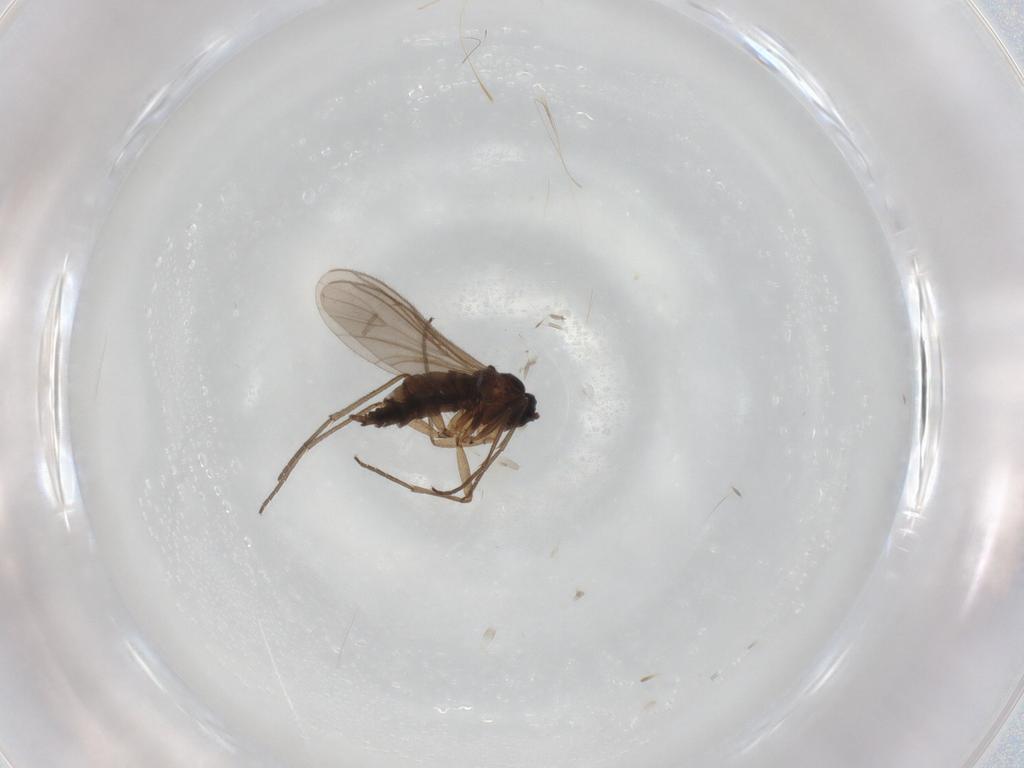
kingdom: Animalia
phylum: Arthropoda
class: Insecta
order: Diptera
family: Sciaridae
